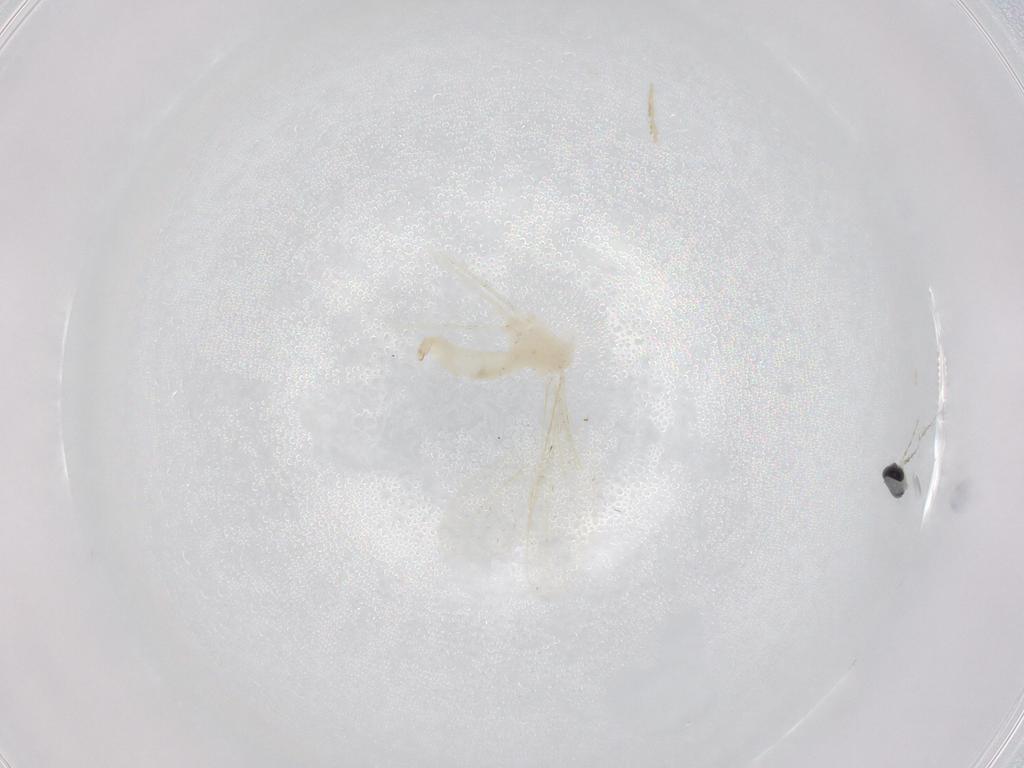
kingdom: Animalia
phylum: Arthropoda
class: Insecta
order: Diptera
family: Cecidomyiidae
